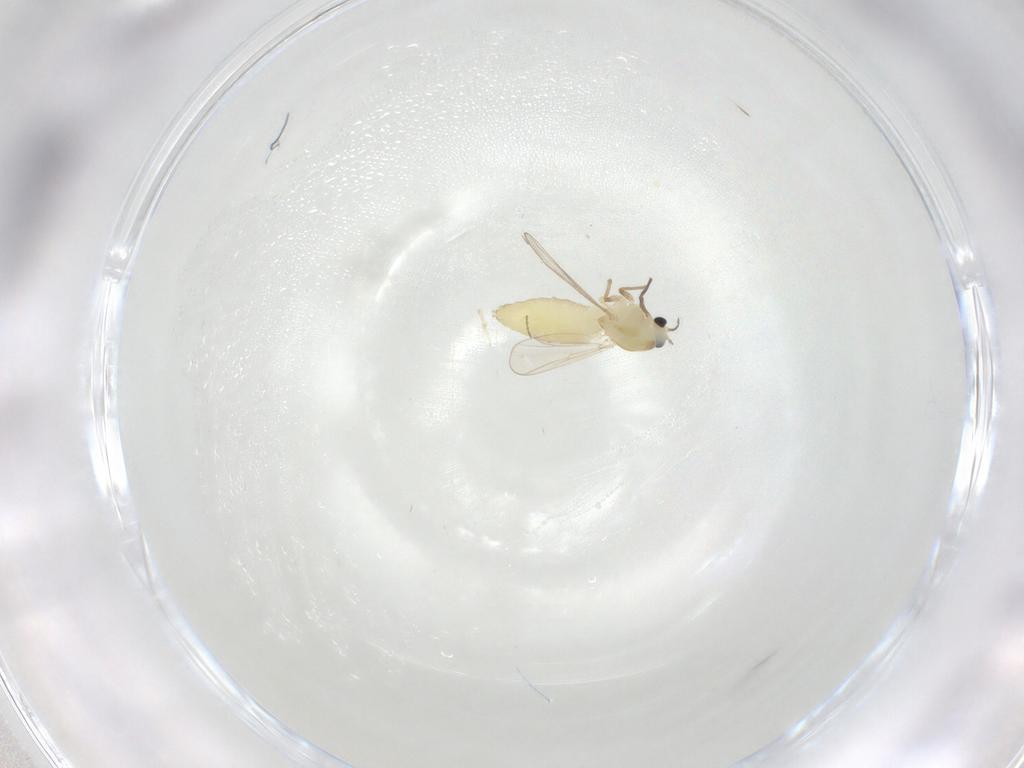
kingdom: Animalia
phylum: Arthropoda
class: Insecta
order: Diptera
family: Chironomidae
